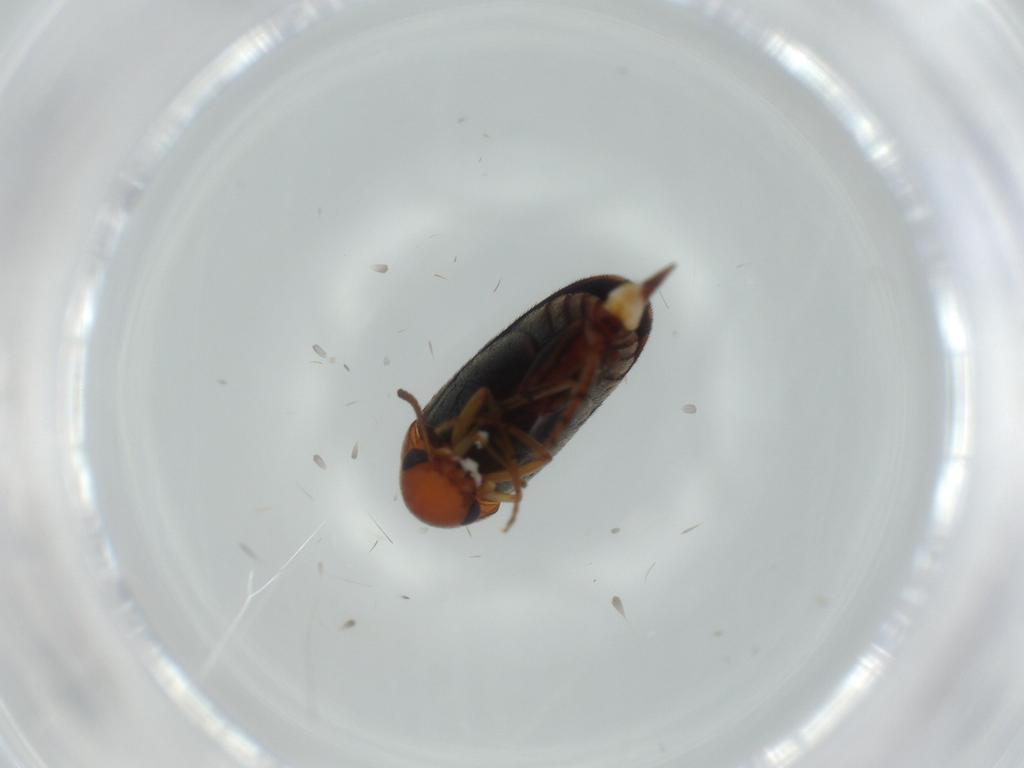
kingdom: Animalia
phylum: Arthropoda
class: Insecta
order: Coleoptera
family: Mordellidae
